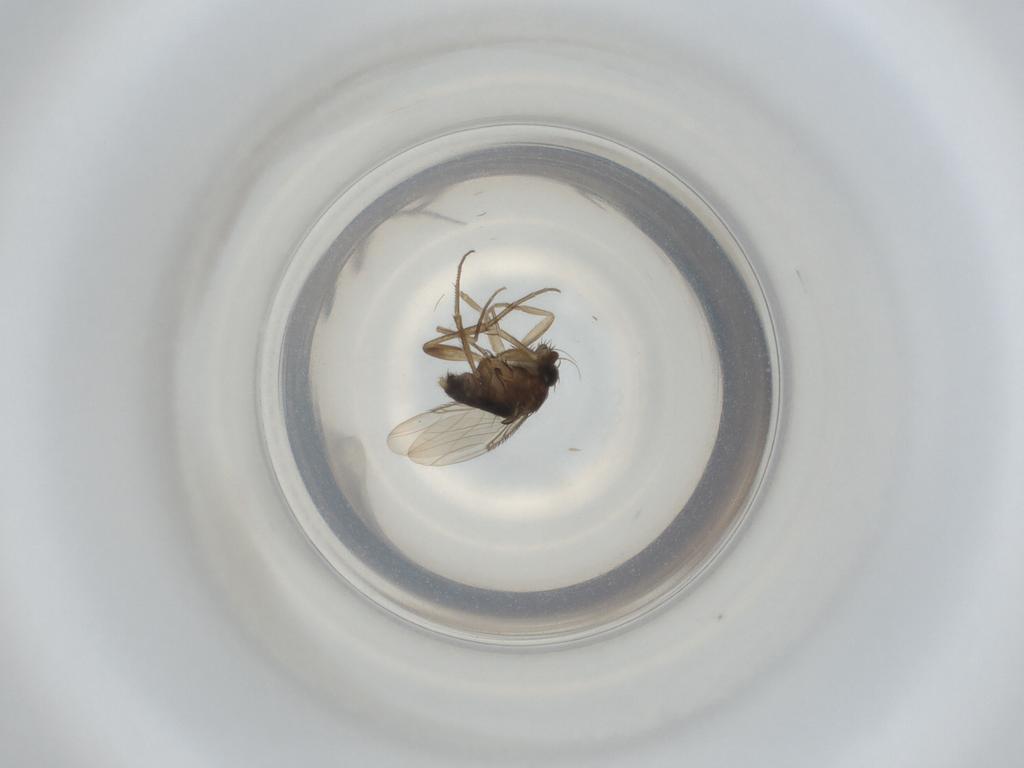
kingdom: Animalia
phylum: Arthropoda
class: Insecta
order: Diptera
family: Phoridae
